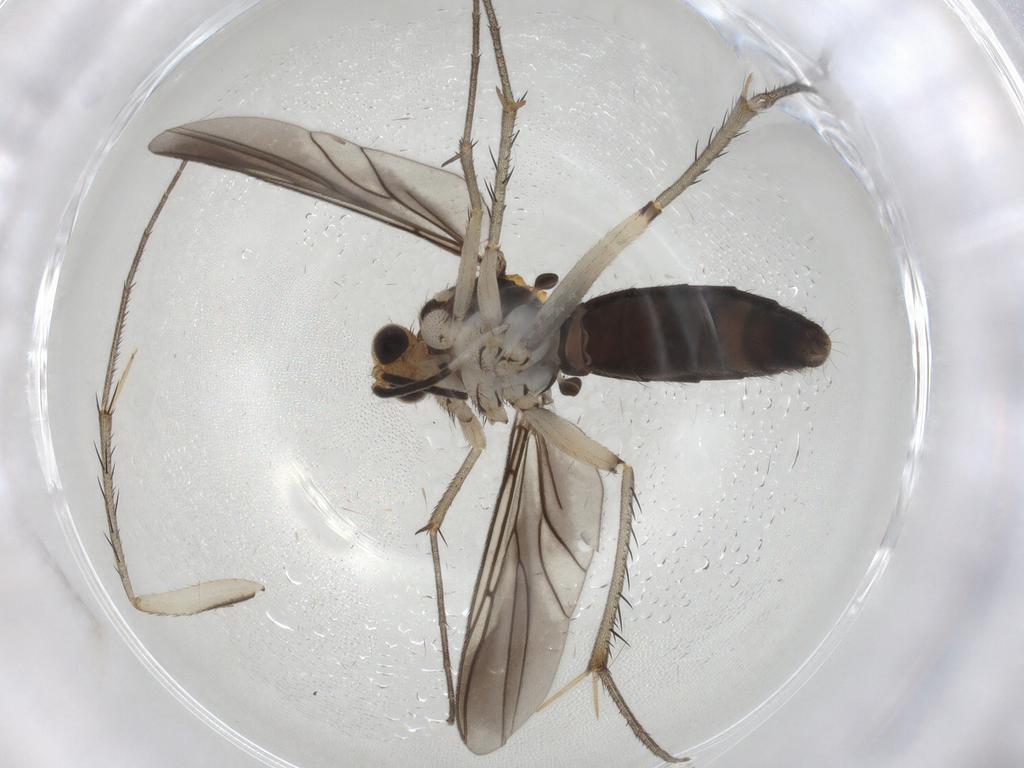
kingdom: Animalia
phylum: Arthropoda
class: Insecta
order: Diptera
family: Mycetophilidae
